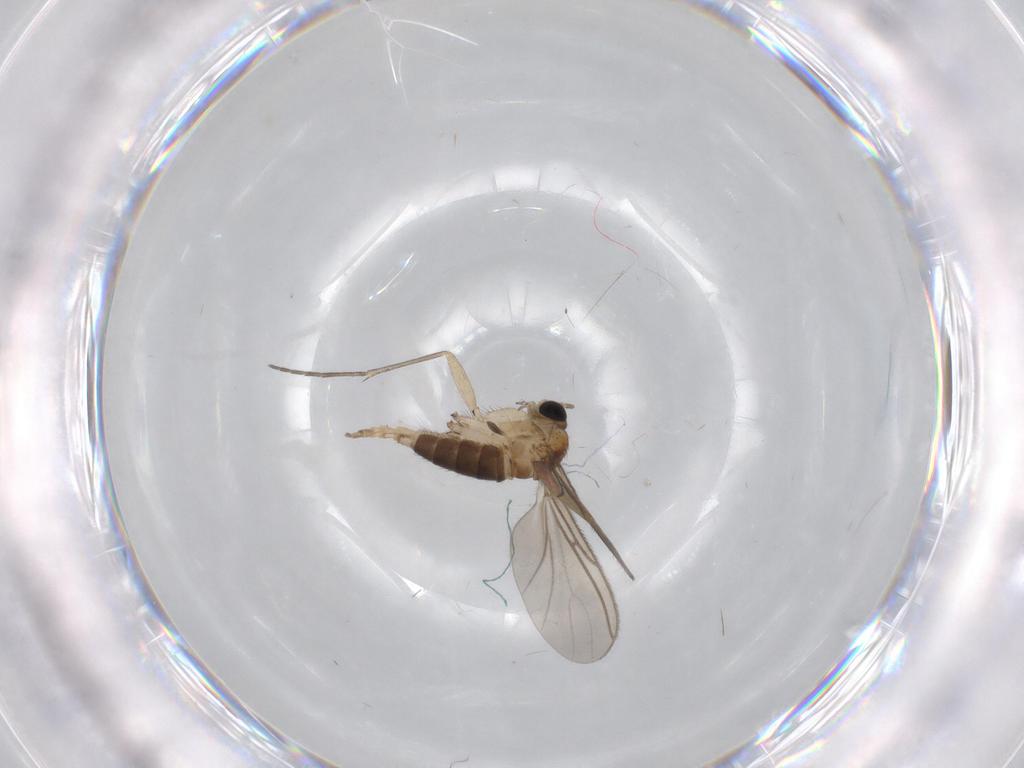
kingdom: Animalia
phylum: Arthropoda
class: Insecta
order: Diptera
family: Sciaridae
